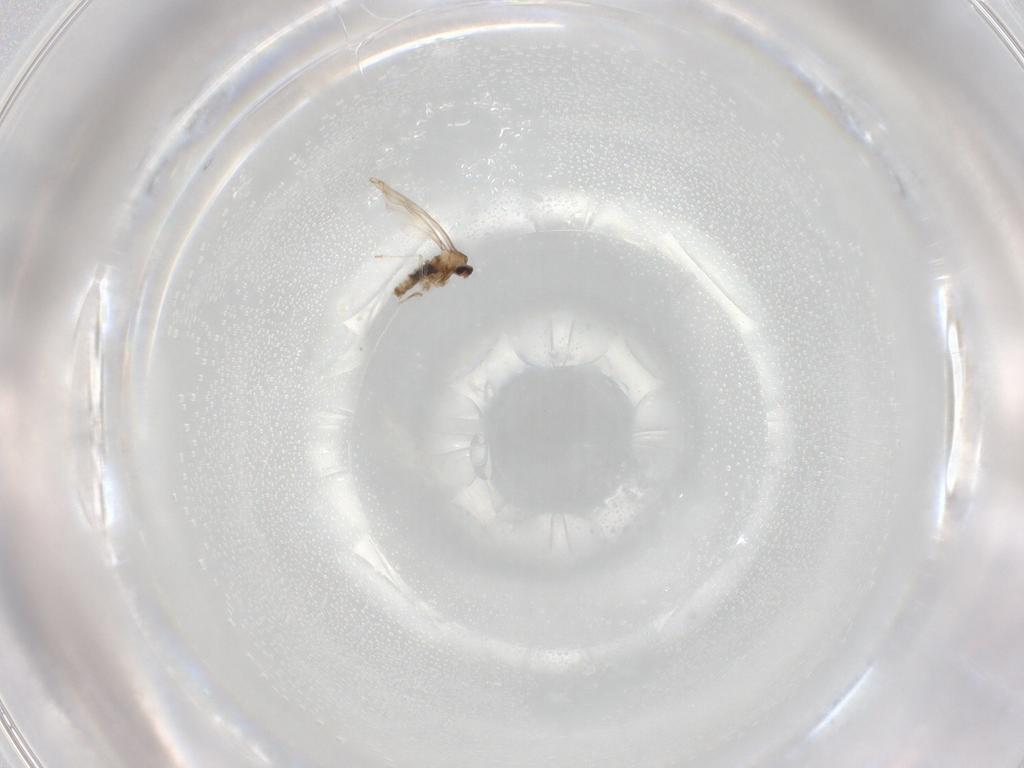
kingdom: Animalia
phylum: Arthropoda
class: Insecta
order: Diptera
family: Cecidomyiidae
